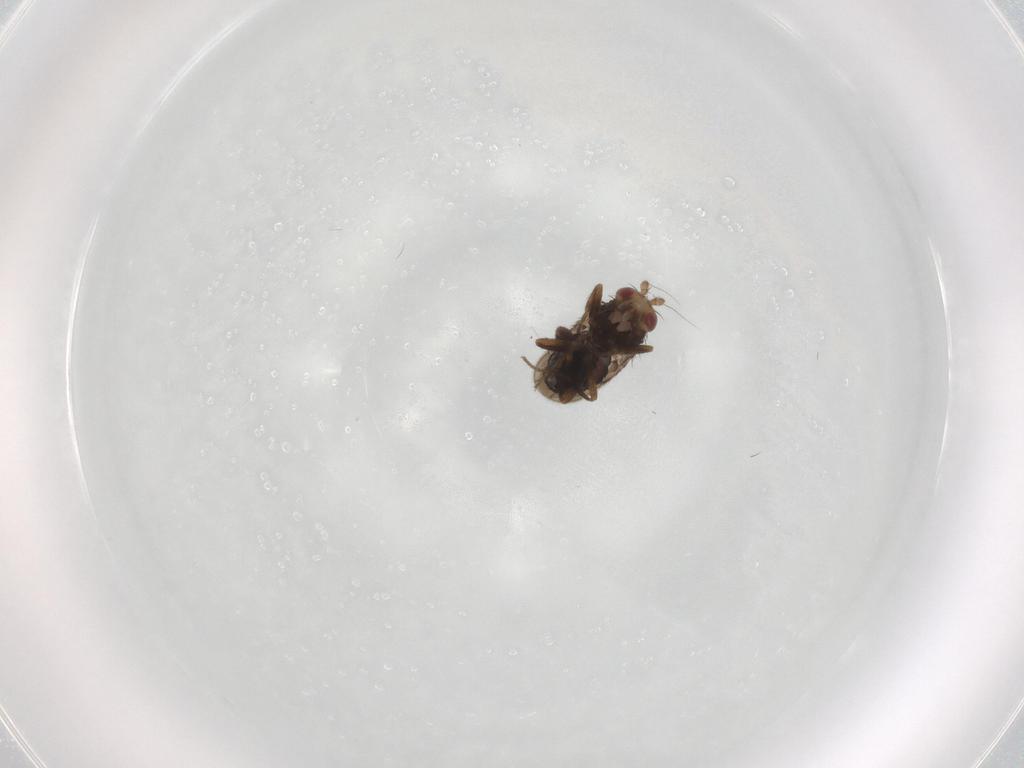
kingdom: Animalia
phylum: Arthropoda
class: Insecta
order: Diptera
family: Sphaeroceridae
